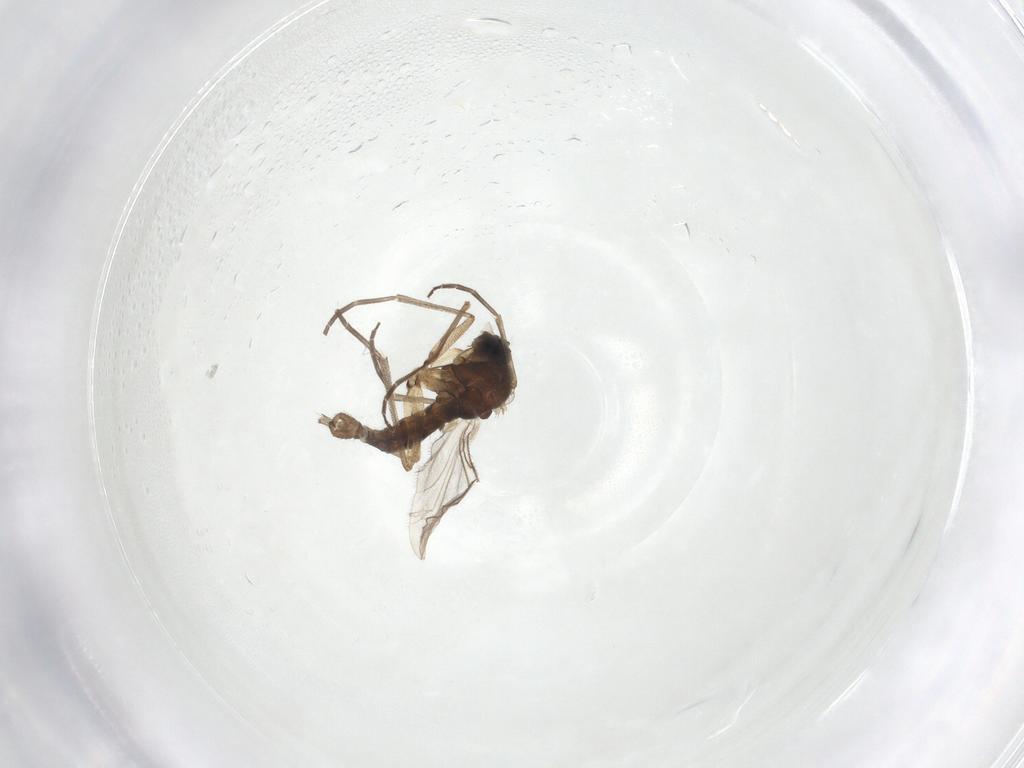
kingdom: Animalia
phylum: Arthropoda
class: Insecta
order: Diptera
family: Sciaridae
